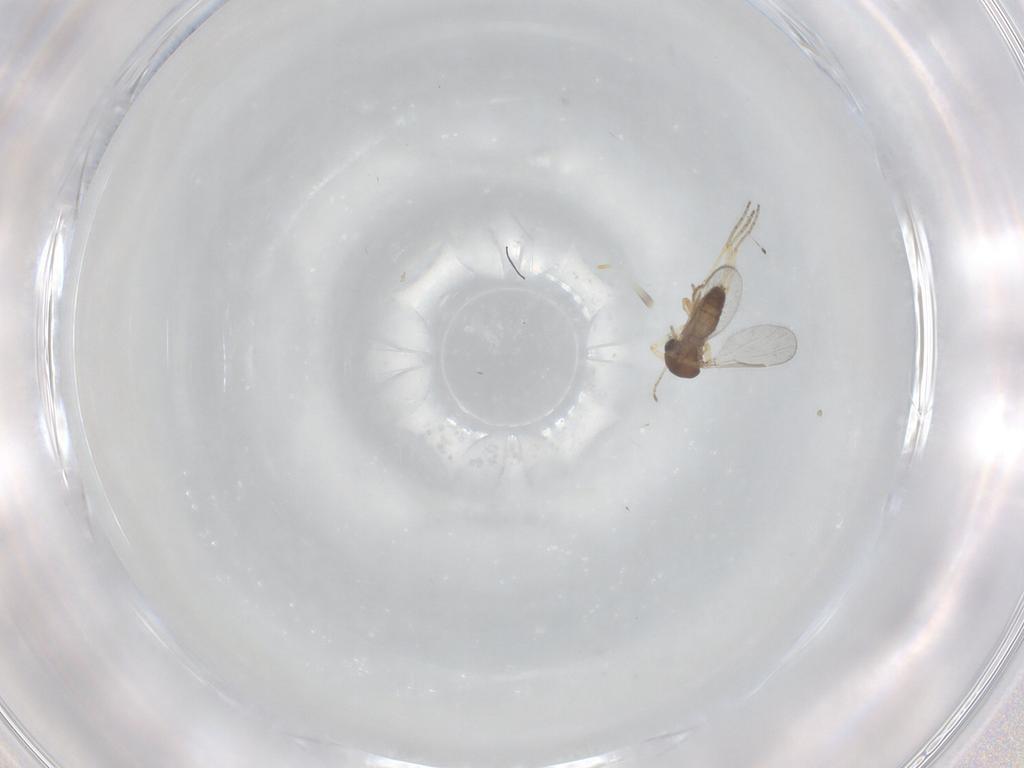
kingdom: Animalia
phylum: Arthropoda
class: Insecta
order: Diptera
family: Ceratopogonidae
